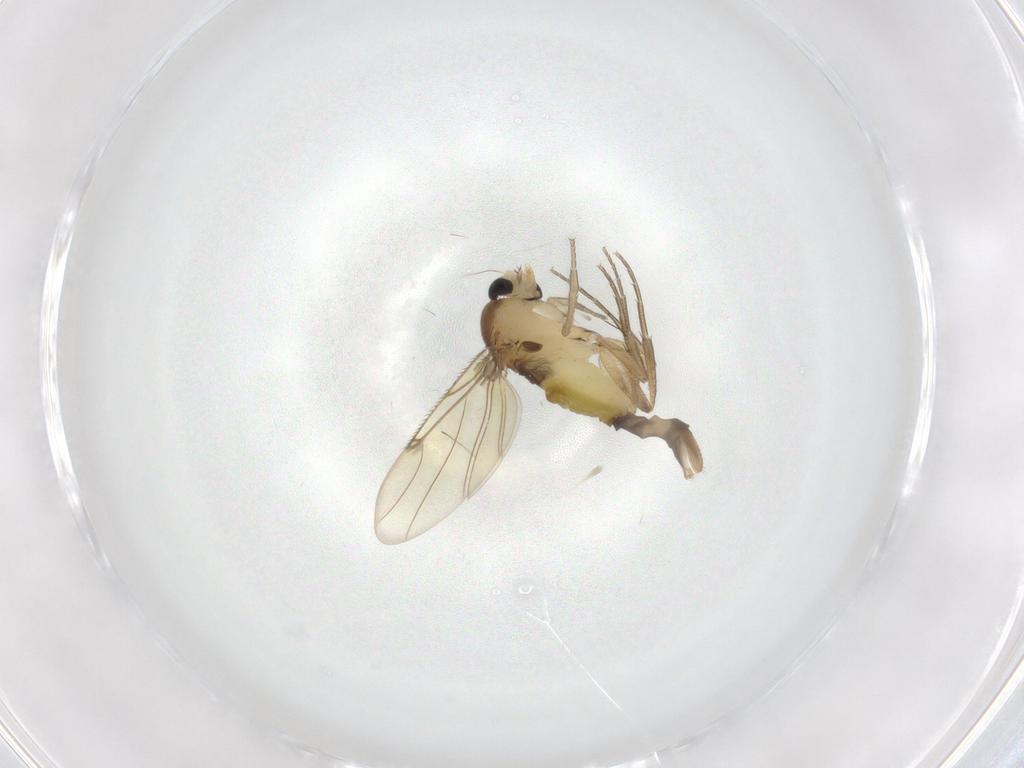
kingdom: Animalia
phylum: Arthropoda
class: Insecta
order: Diptera
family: Phoridae
